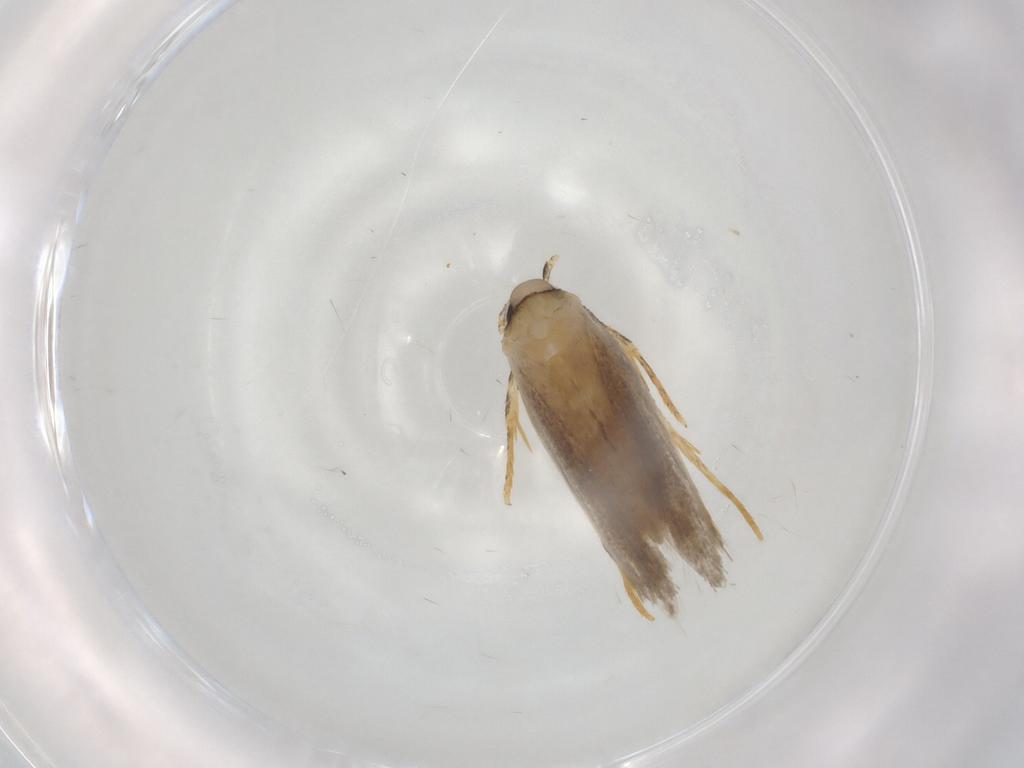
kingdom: Animalia
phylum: Arthropoda
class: Insecta
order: Lepidoptera
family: Autostichidae
